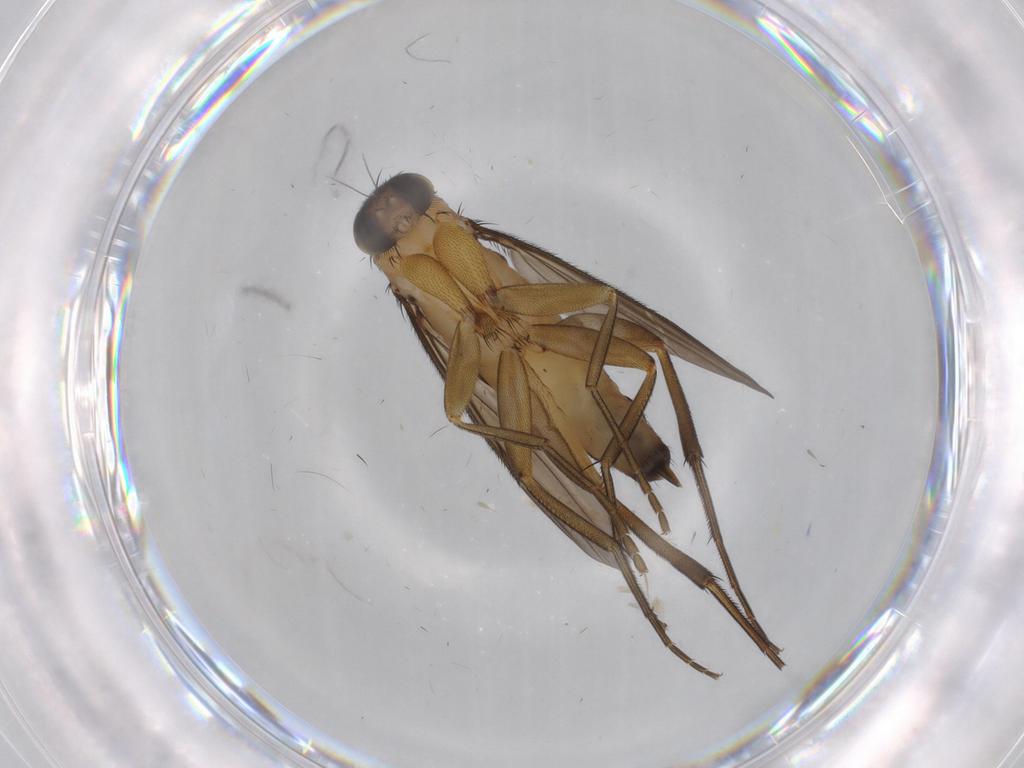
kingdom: Animalia
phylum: Arthropoda
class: Insecta
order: Diptera
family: Phoridae
